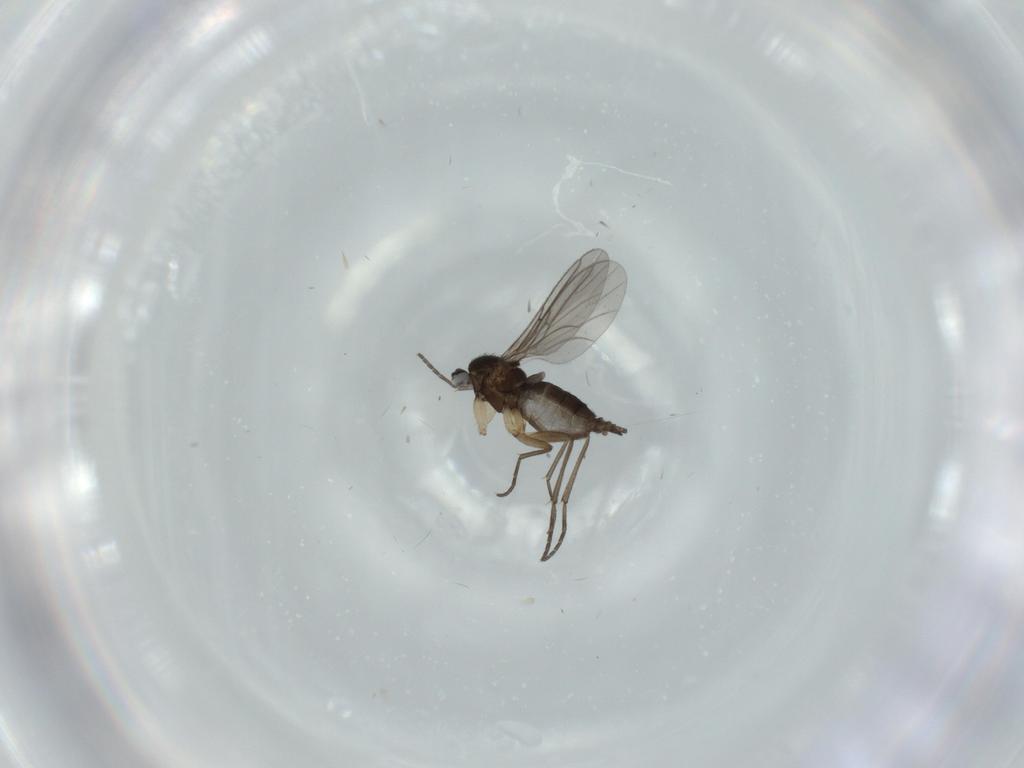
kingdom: Animalia
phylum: Arthropoda
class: Insecta
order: Diptera
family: Sciaridae
